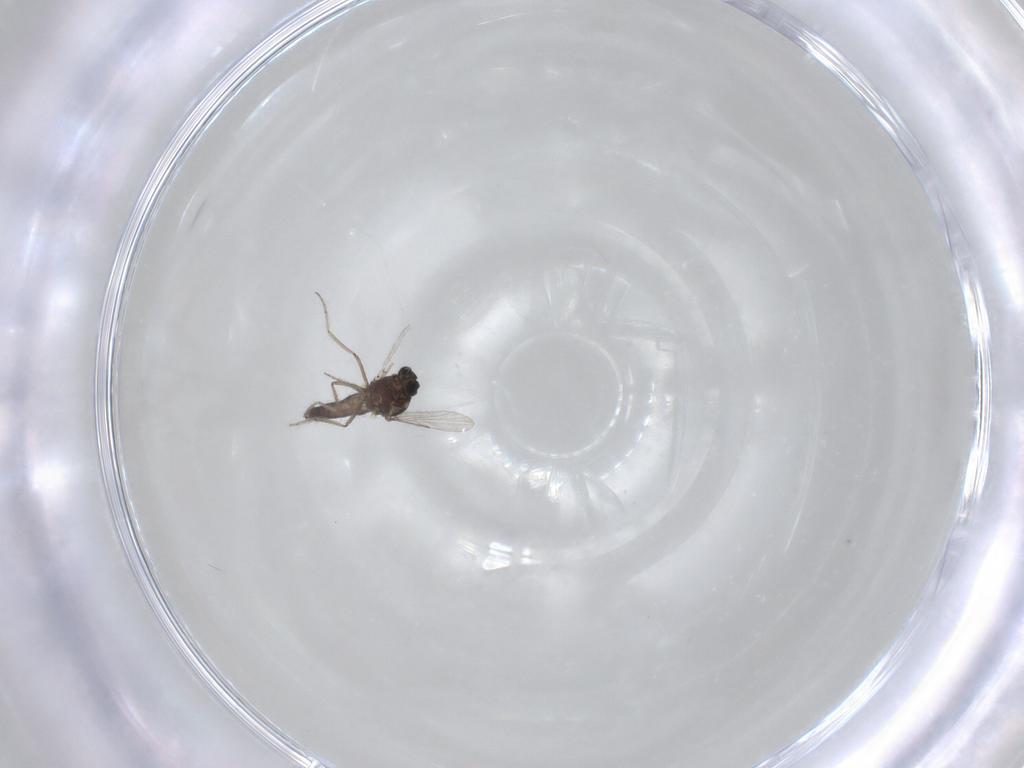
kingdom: Animalia
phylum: Arthropoda
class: Insecta
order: Diptera
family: Ceratopogonidae
